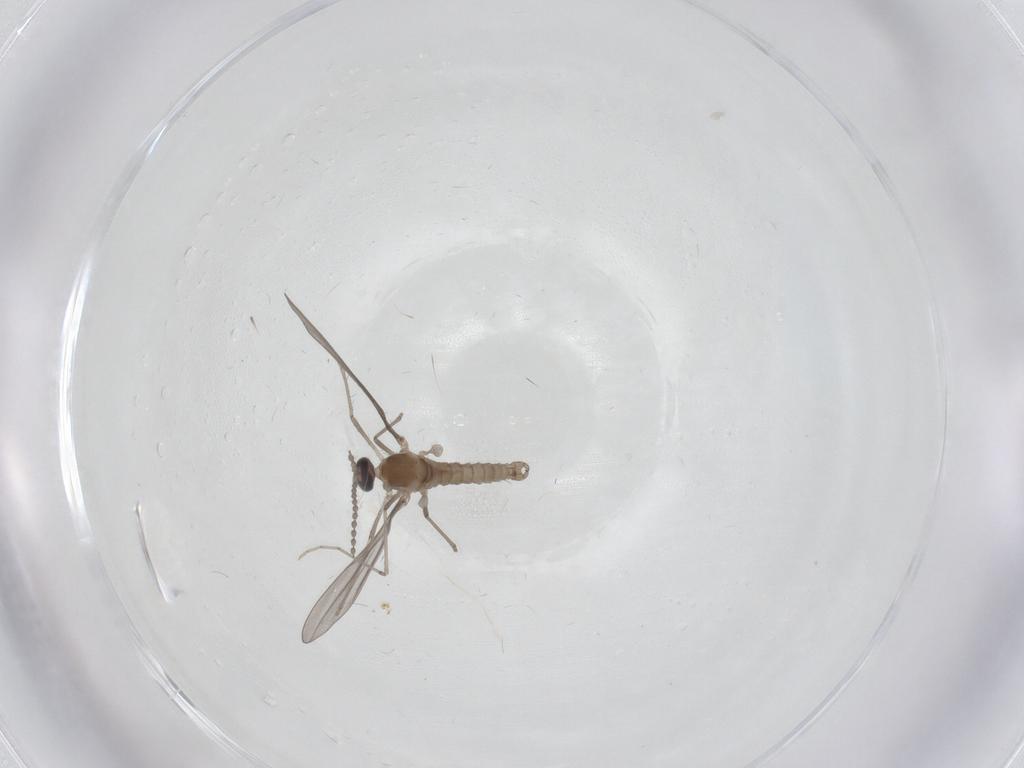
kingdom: Animalia
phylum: Arthropoda
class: Insecta
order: Diptera
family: Cecidomyiidae
